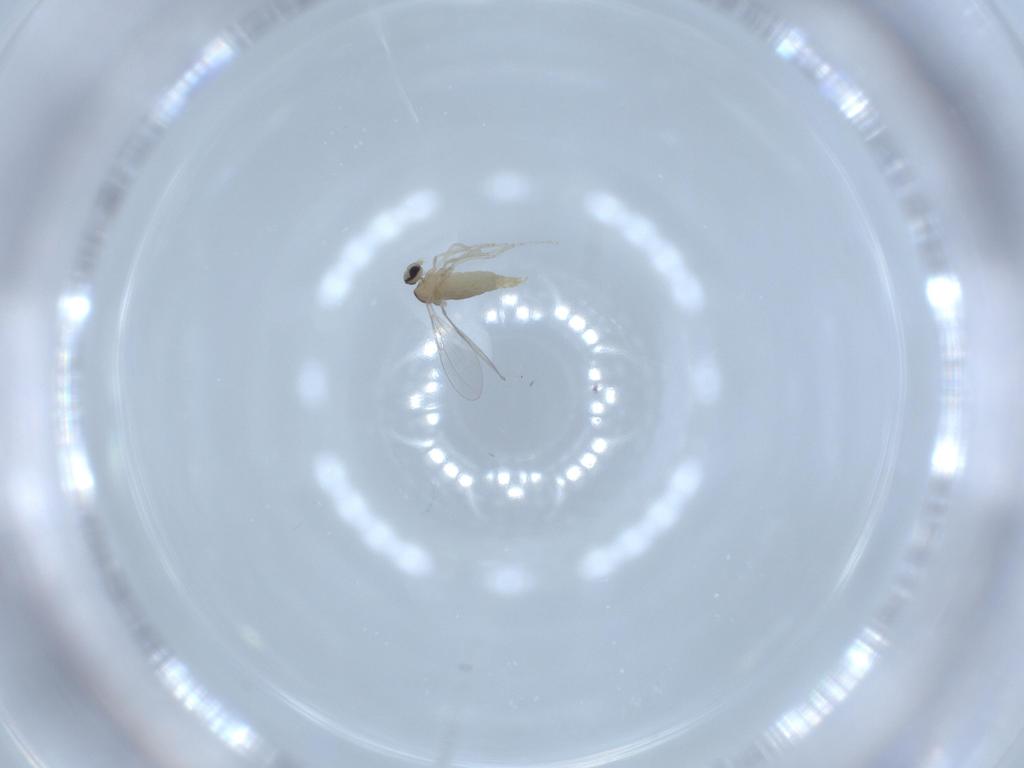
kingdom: Animalia
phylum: Arthropoda
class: Insecta
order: Diptera
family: Cecidomyiidae
